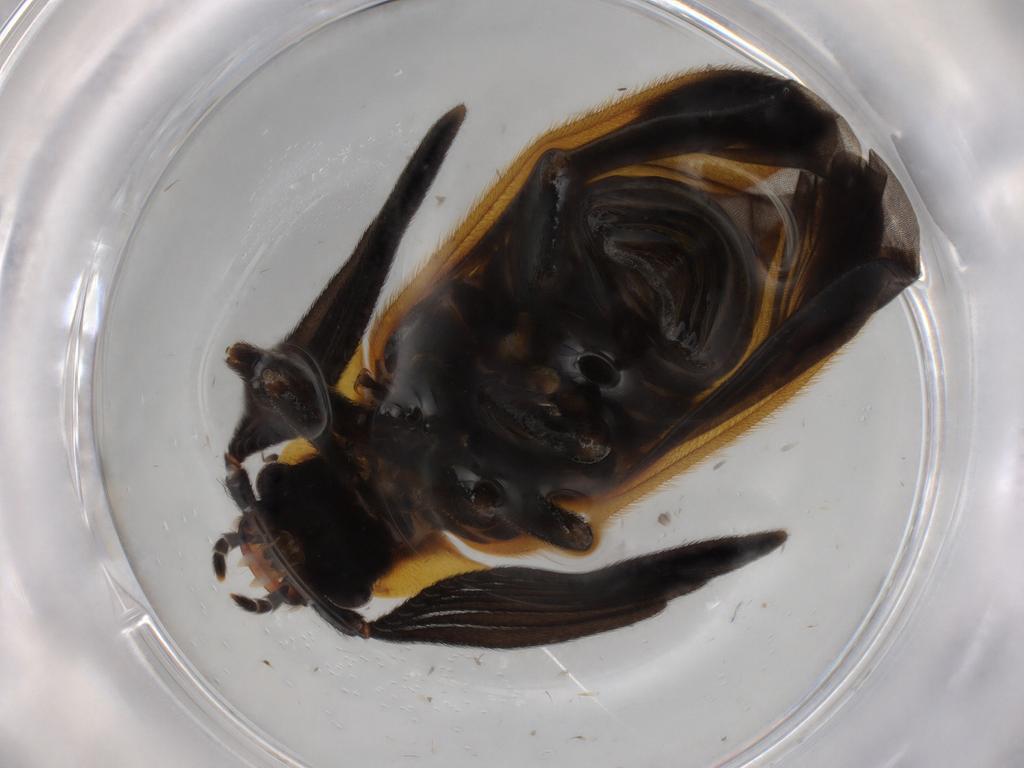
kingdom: Animalia
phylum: Arthropoda
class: Insecta
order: Coleoptera
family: Lampyridae
